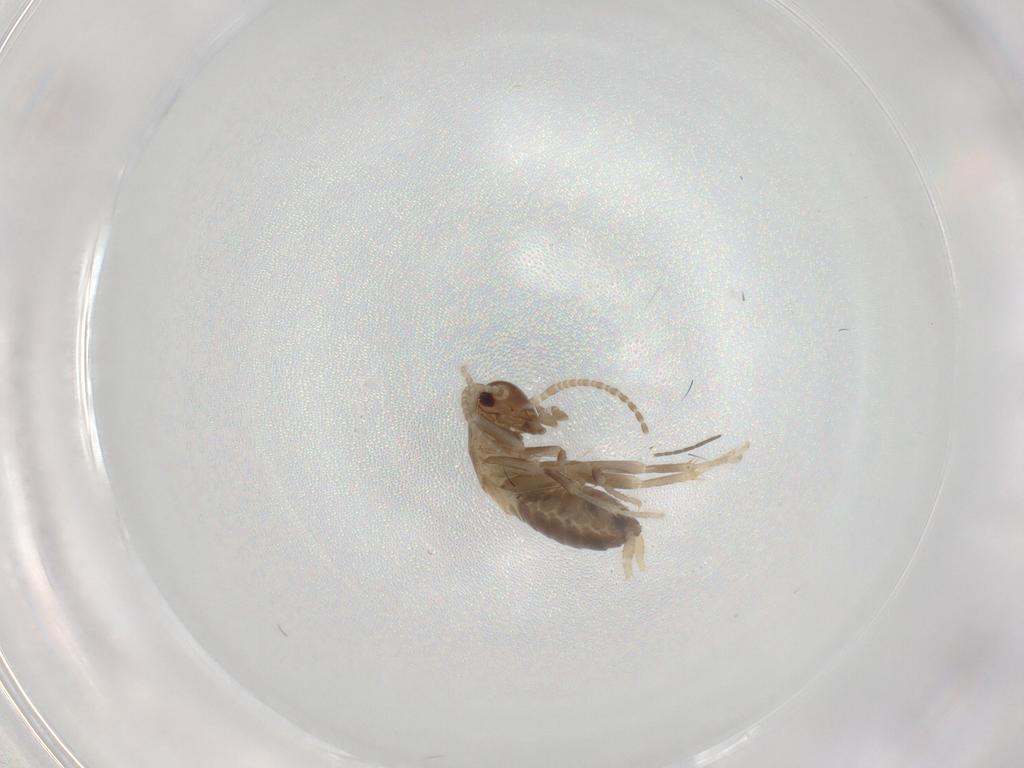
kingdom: Animalia
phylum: Arthropoda
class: Insecta
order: Blattodea
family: Ectobiidae
